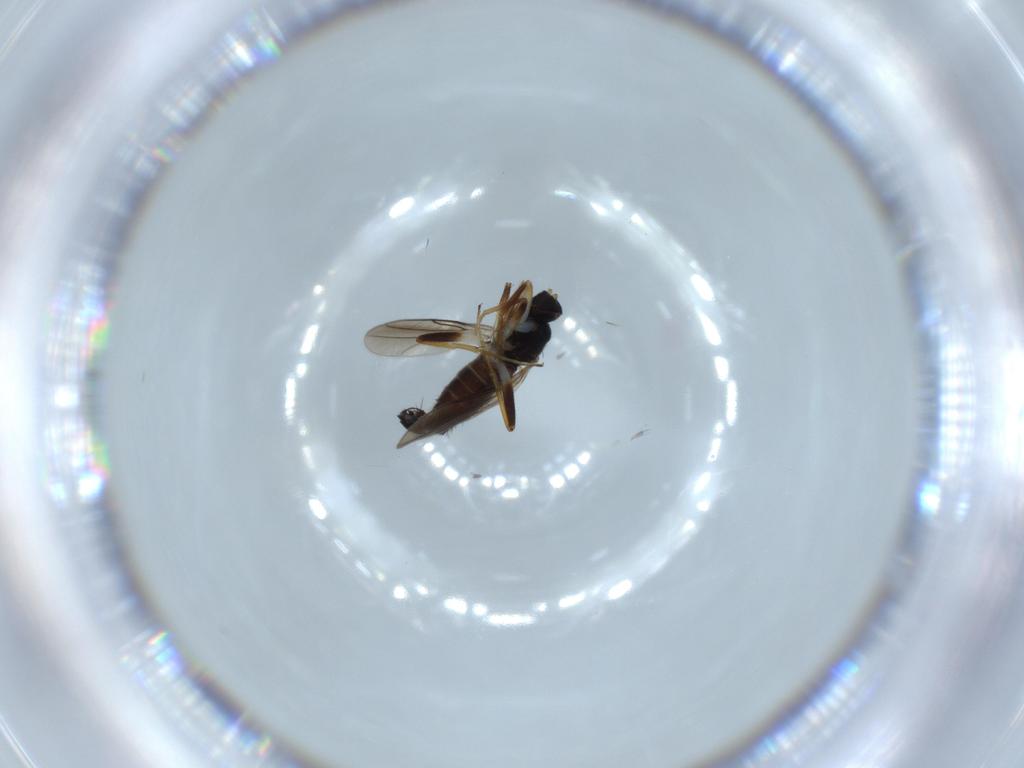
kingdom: Animalia
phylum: Arthropoda
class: Insecta
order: Diptera
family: Hybotidae
